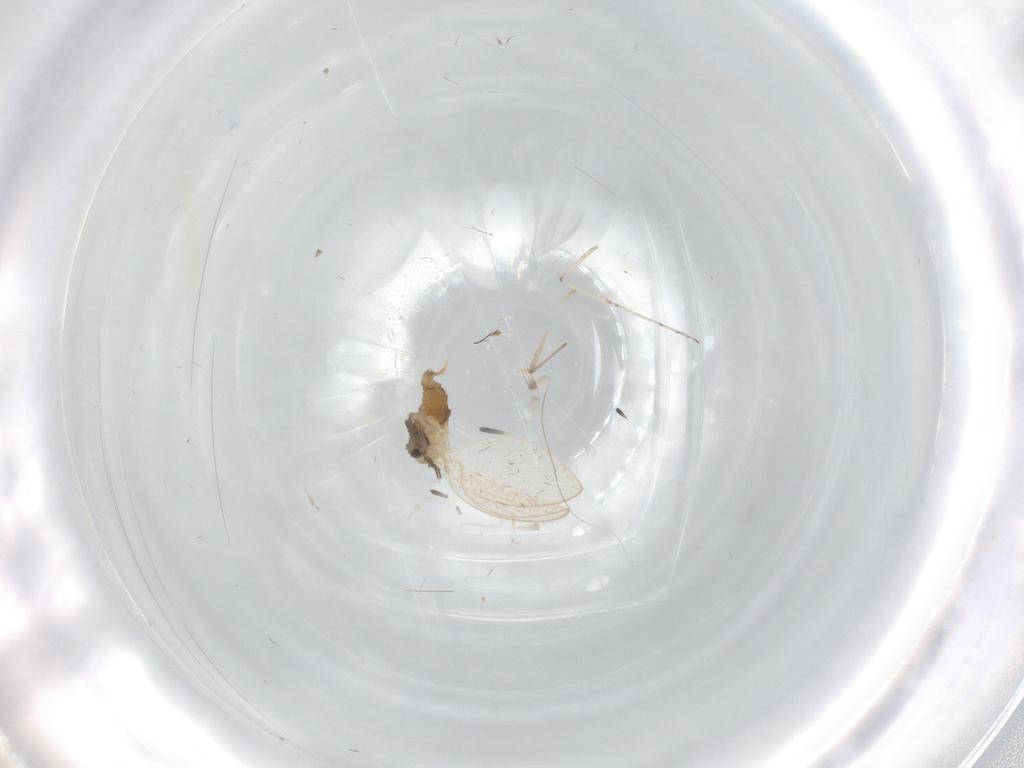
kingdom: Animalia
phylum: Arthropoda
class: Insecta
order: Diptera
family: Psychodidae
